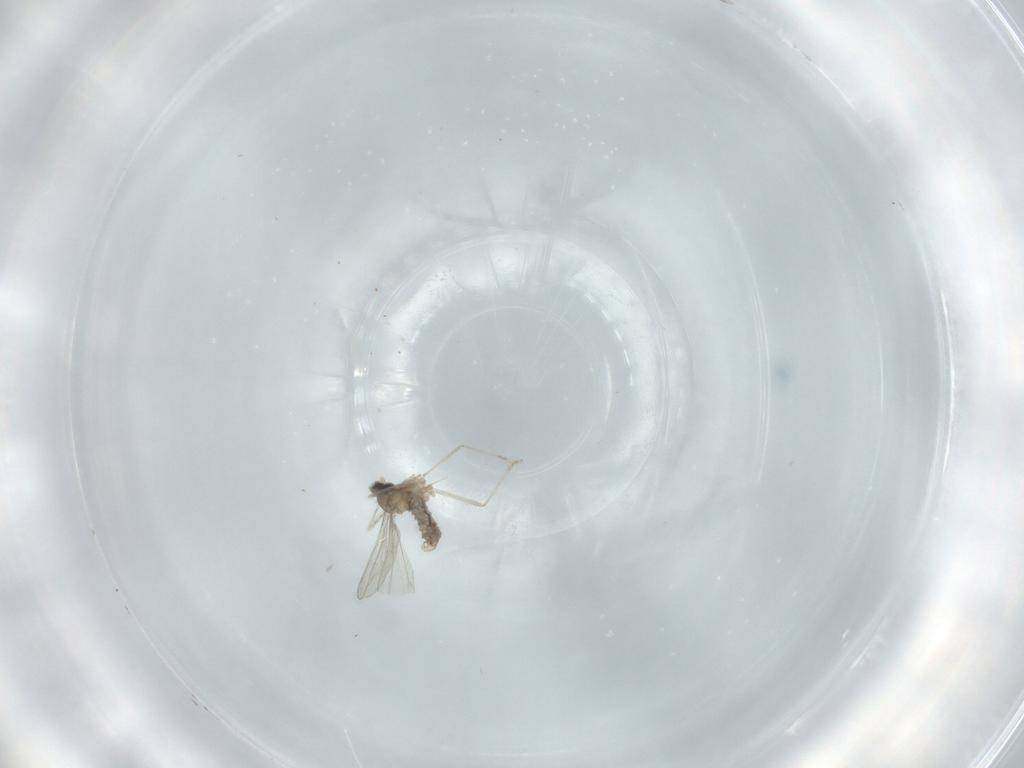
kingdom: Animalia
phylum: Arthropoda
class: Insecta
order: Diptera
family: Cecidomyiidae
